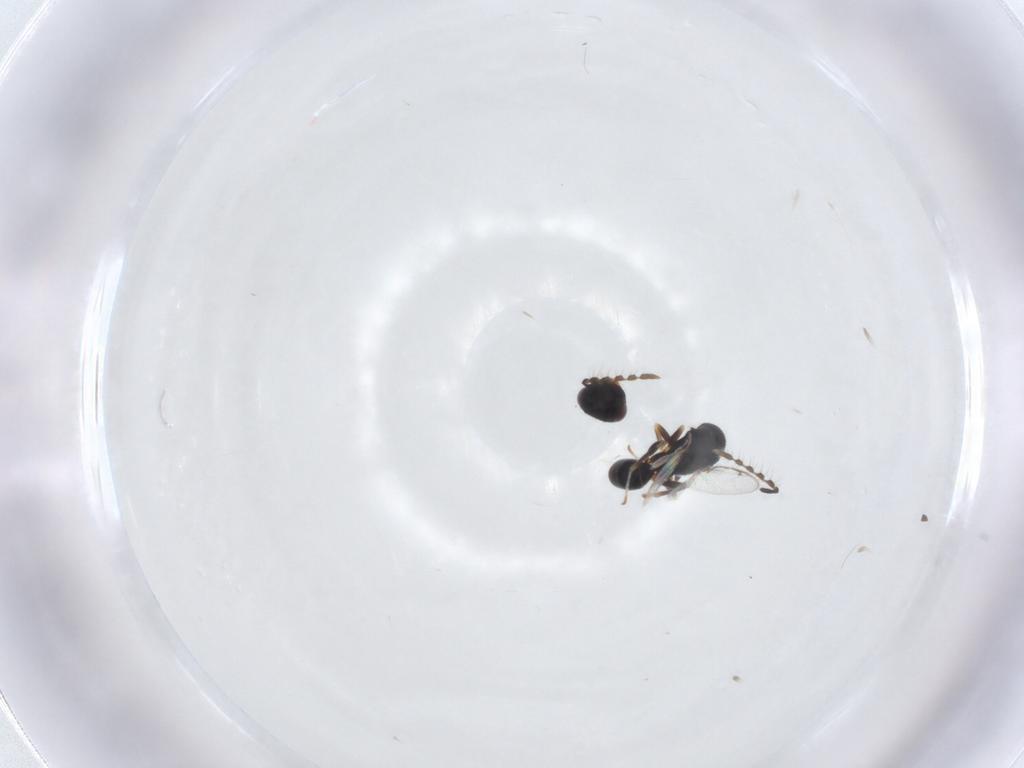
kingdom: Animalia
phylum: Arthropoda
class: Insecta
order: Hymenoptera
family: Eurytomidae
